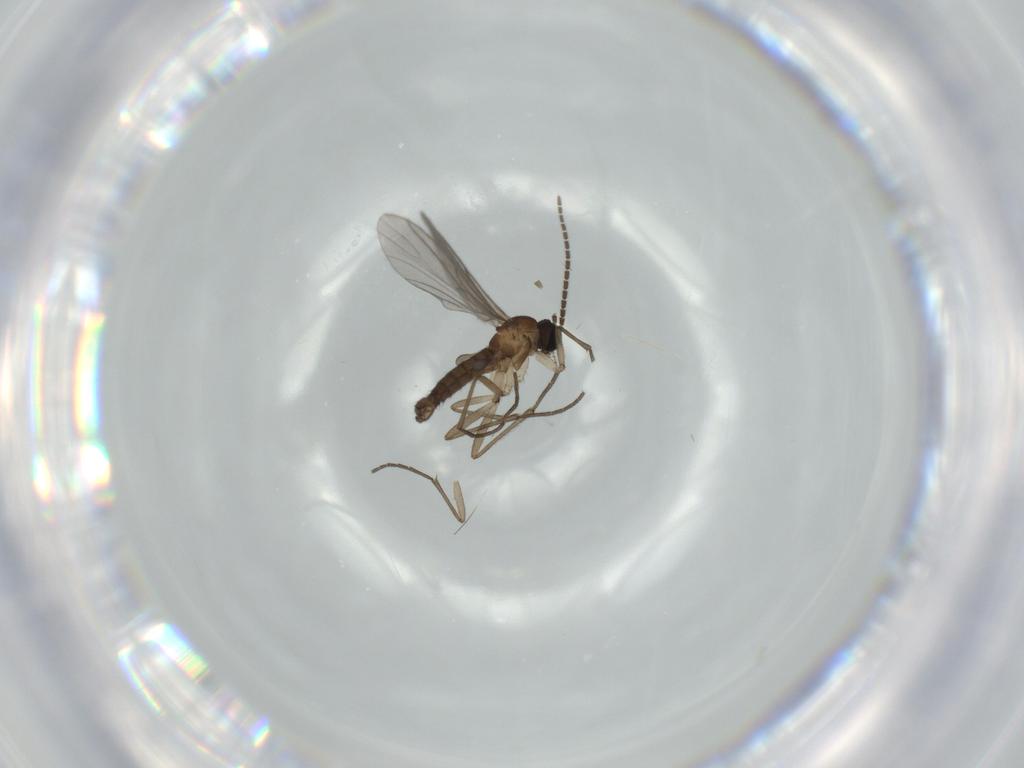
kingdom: Animalia
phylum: Arthropoda
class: Insecta
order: Diptera
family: Sciaridae
